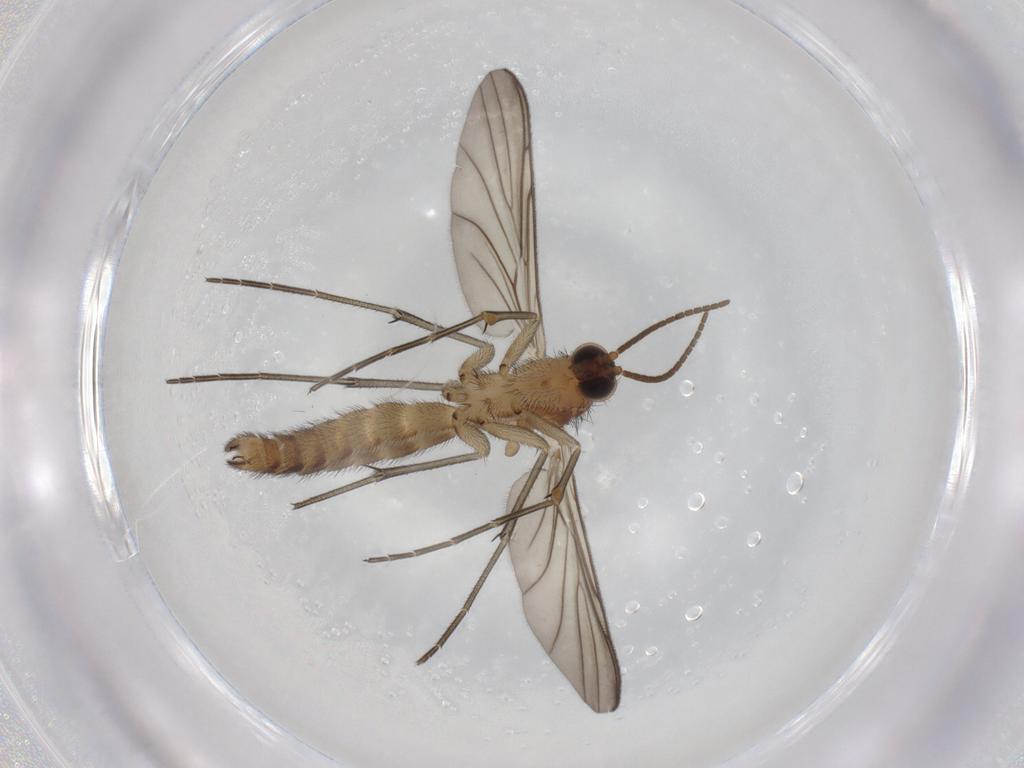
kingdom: Animalia
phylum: Arthropoda
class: Insecta
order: Diptera
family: Keroplatidae
